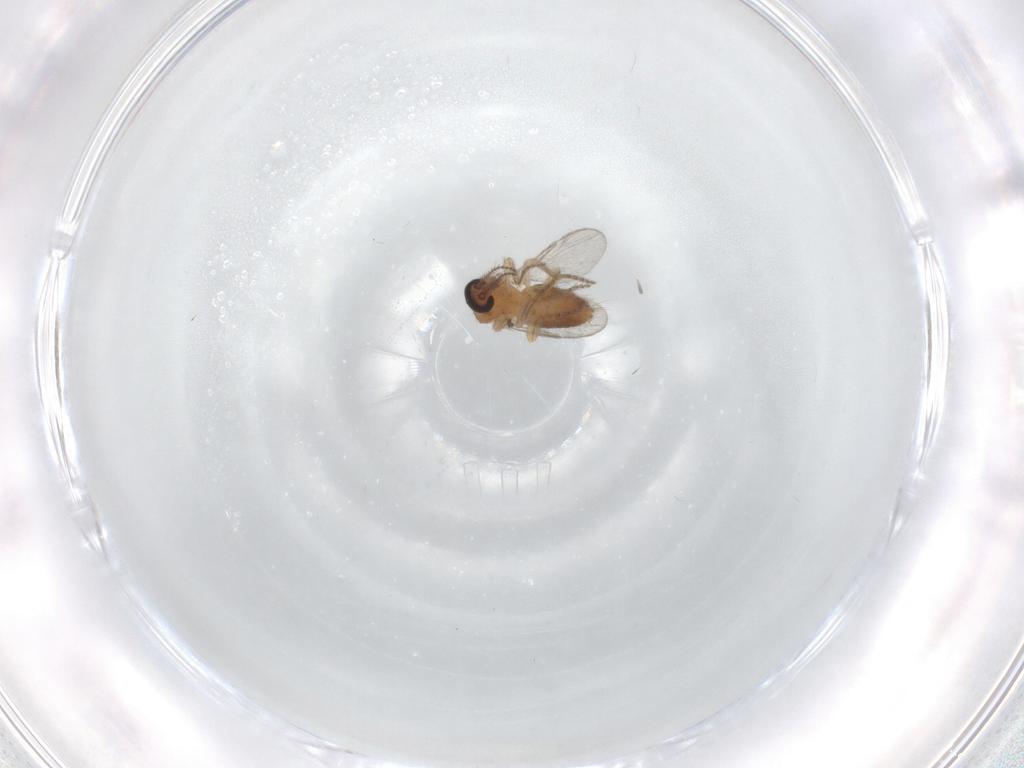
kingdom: Animalia
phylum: Arthropoda
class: Insecta
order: Diptera
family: Ceratopogonidae
